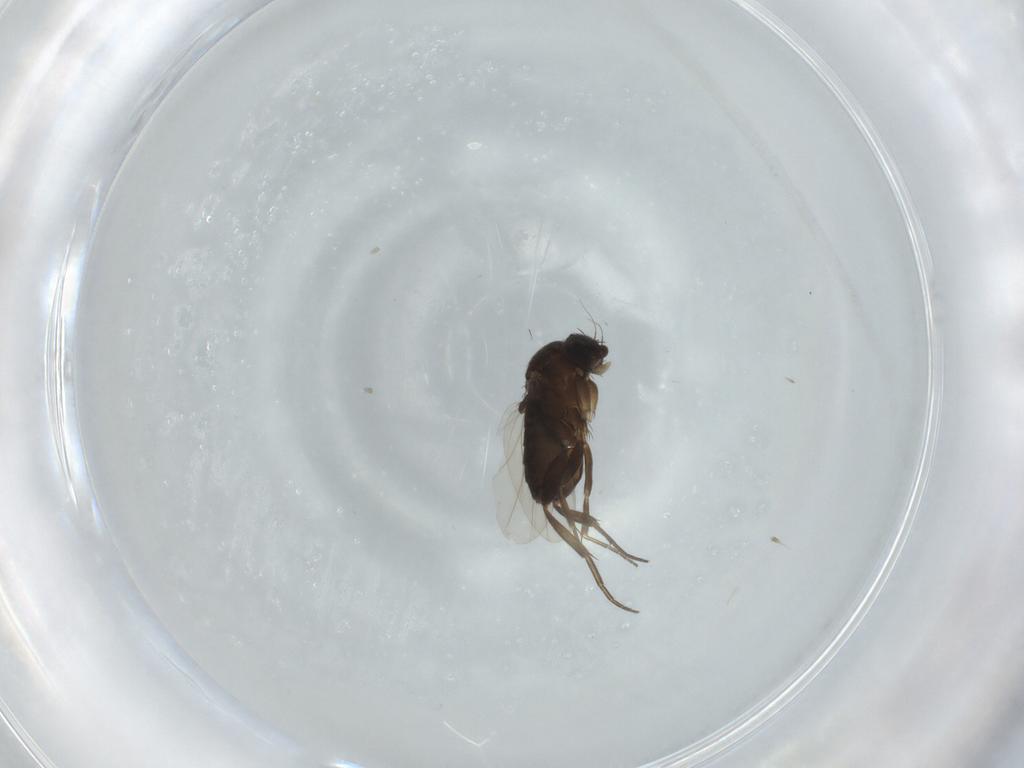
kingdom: Animalia
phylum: Arthropoda
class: Insecta
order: Diptera
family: Phoridae
